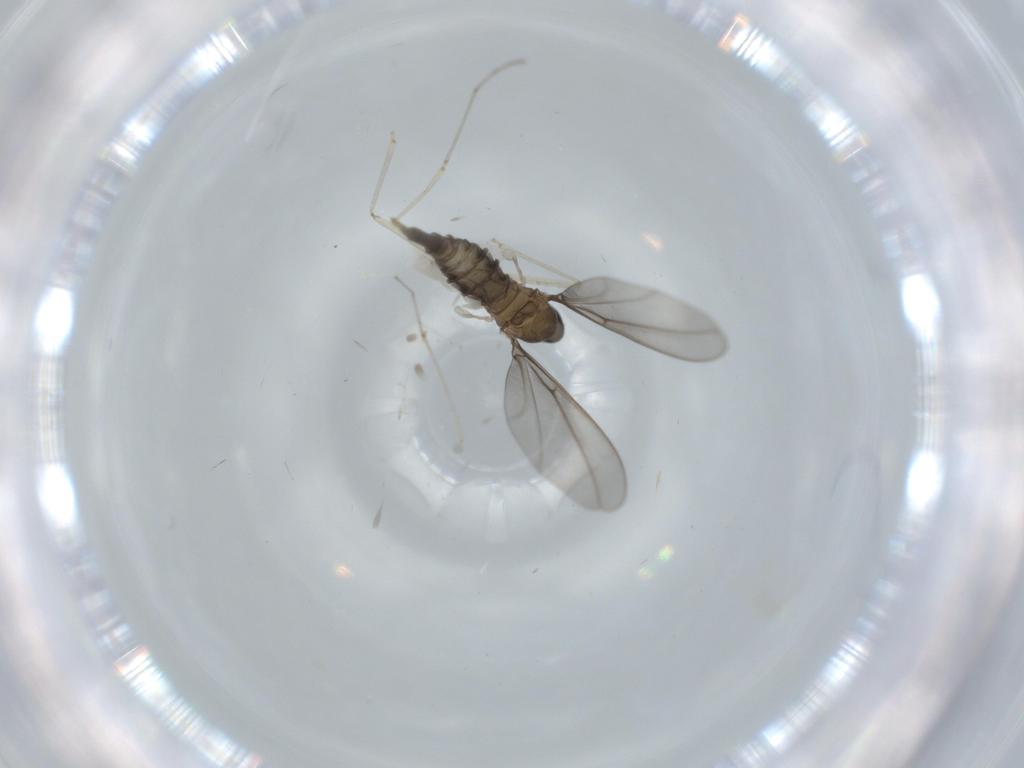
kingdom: Animalia
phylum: Arthropoda
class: Insecta
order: Diptera
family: Cecidomyiidae
